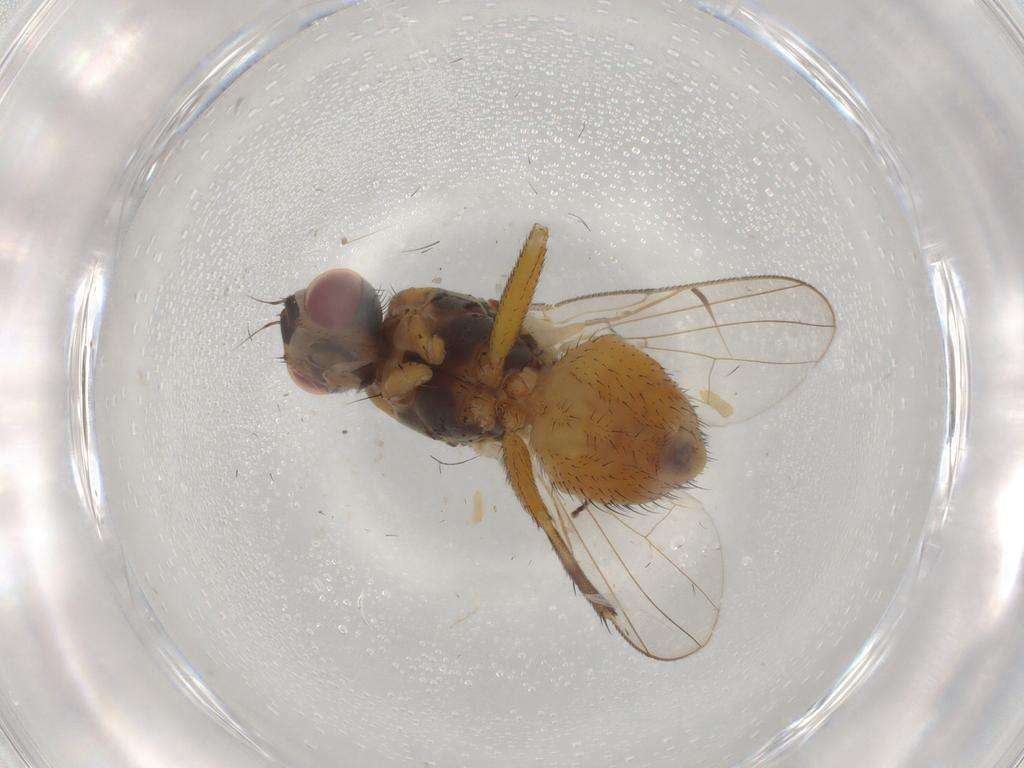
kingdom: Animalia
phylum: Arthropoda
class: Insecta
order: Diptera
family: Muscidae
